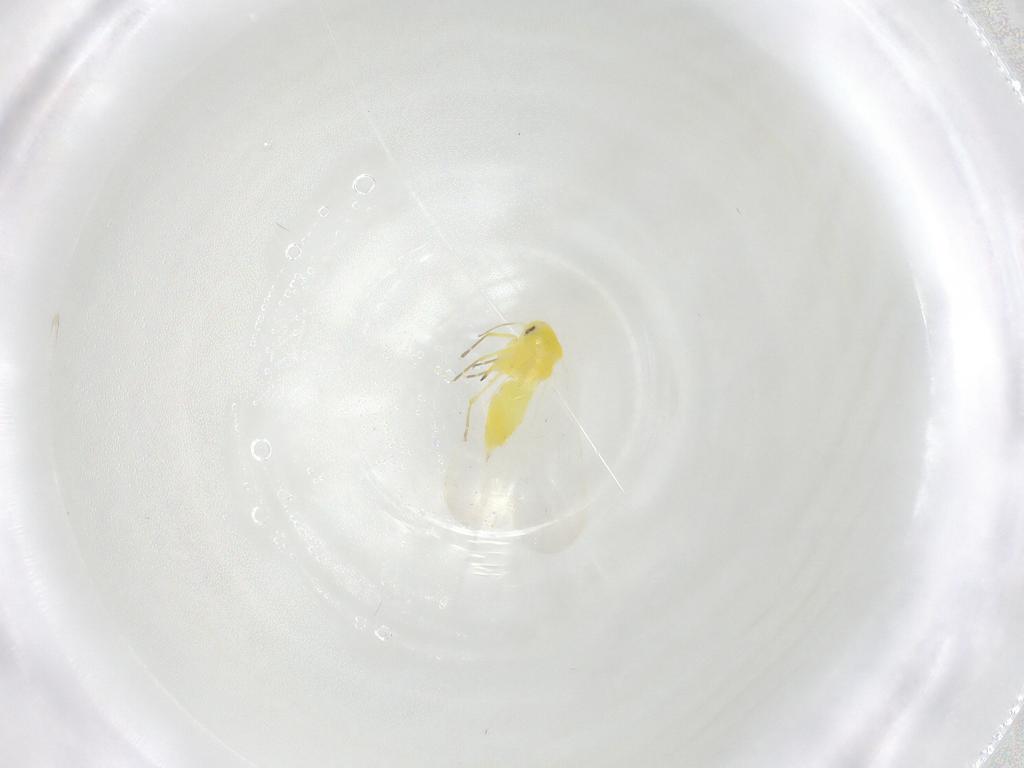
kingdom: Animalia
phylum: Arthropoda
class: Insecta
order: Hemiptera
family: Aleyrodidae
